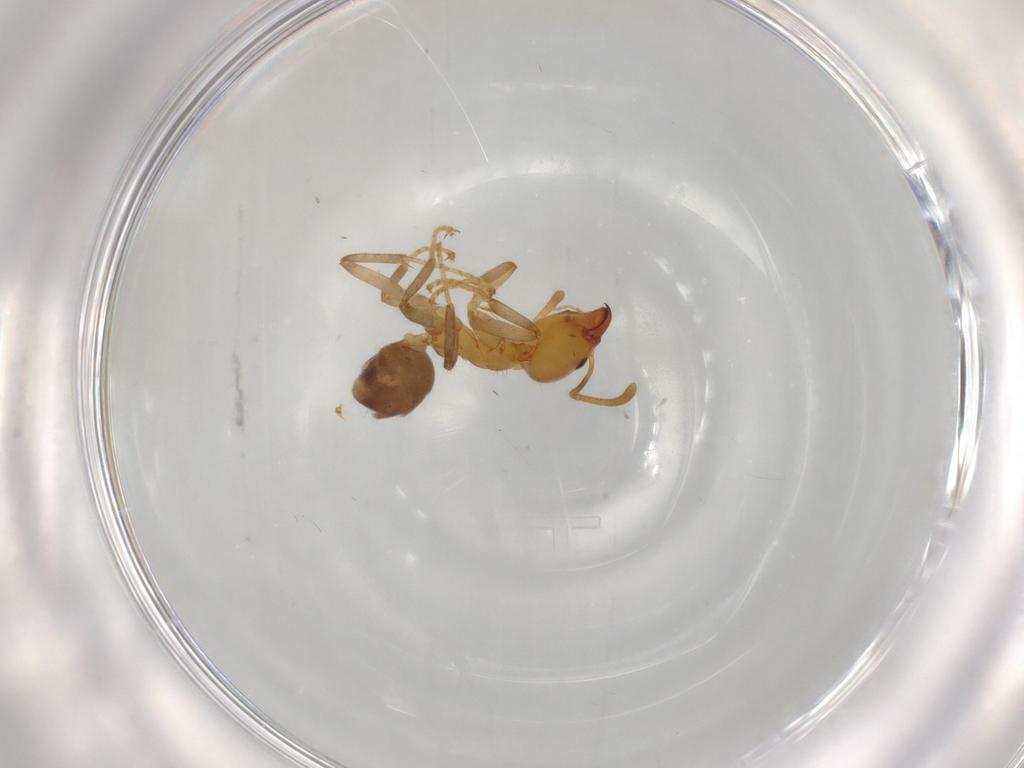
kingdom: Animalia
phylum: Arthropoda
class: Insecta
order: Hymenoptera
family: Formicidae
